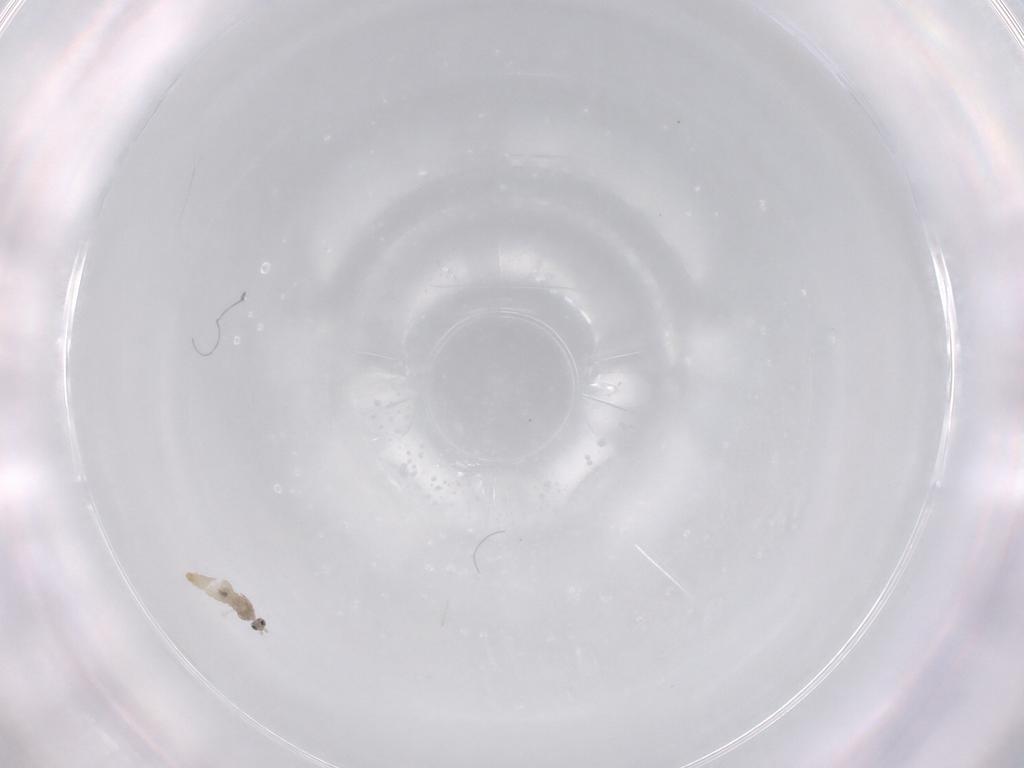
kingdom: Animalia
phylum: Arthropoda
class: Insecta
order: Diptera
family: Cecidomyiidae
